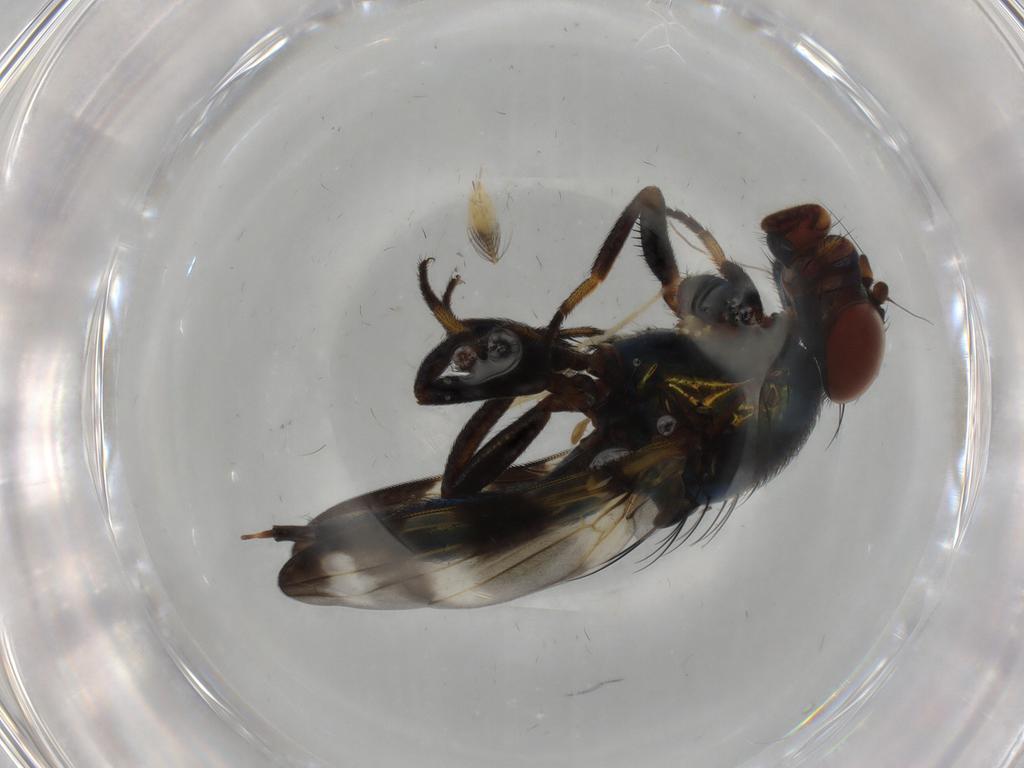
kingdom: Animalia
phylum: Arthropoda
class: Insecta
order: Diptera
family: Ulidiidae
